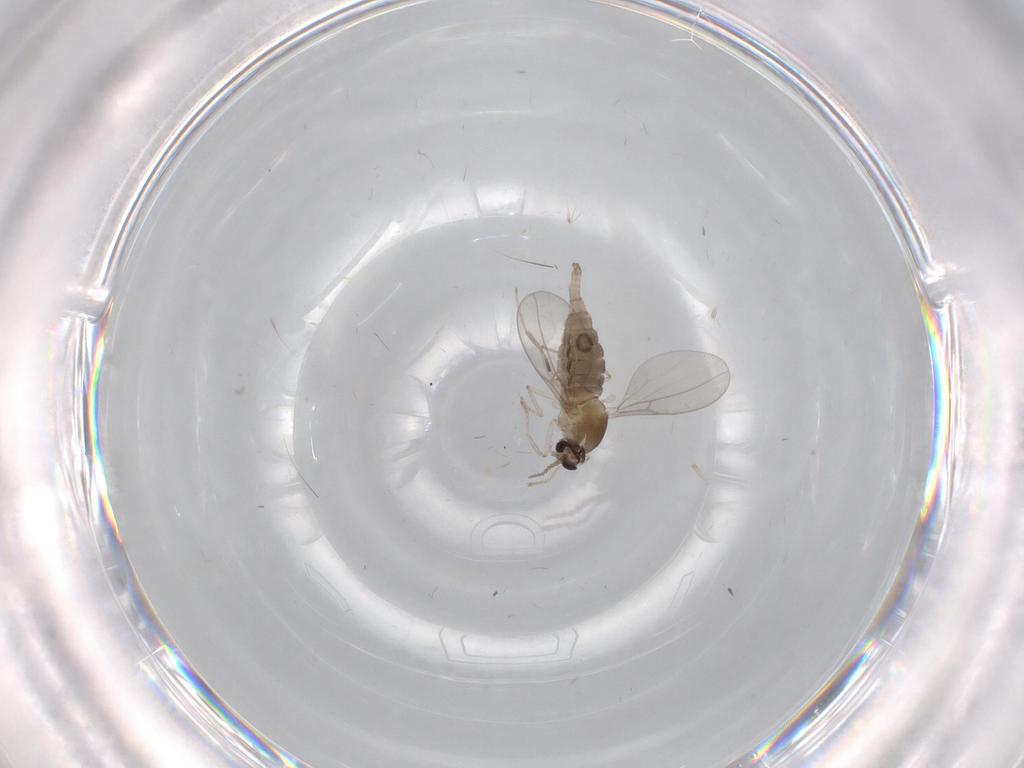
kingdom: Animalia
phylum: Arthropoda
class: Insecta
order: Diptera
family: Cecidomyiidae
